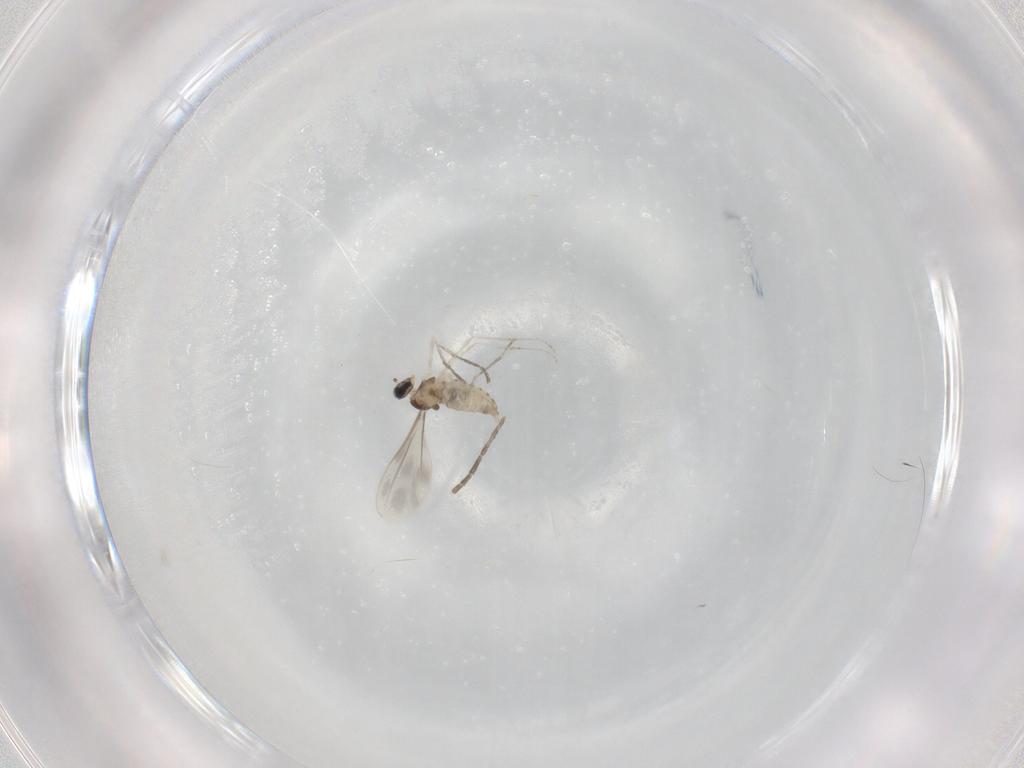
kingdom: Animalia
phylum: Arthropoda
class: Insecta
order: Diptera
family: Cecidomyiidae
